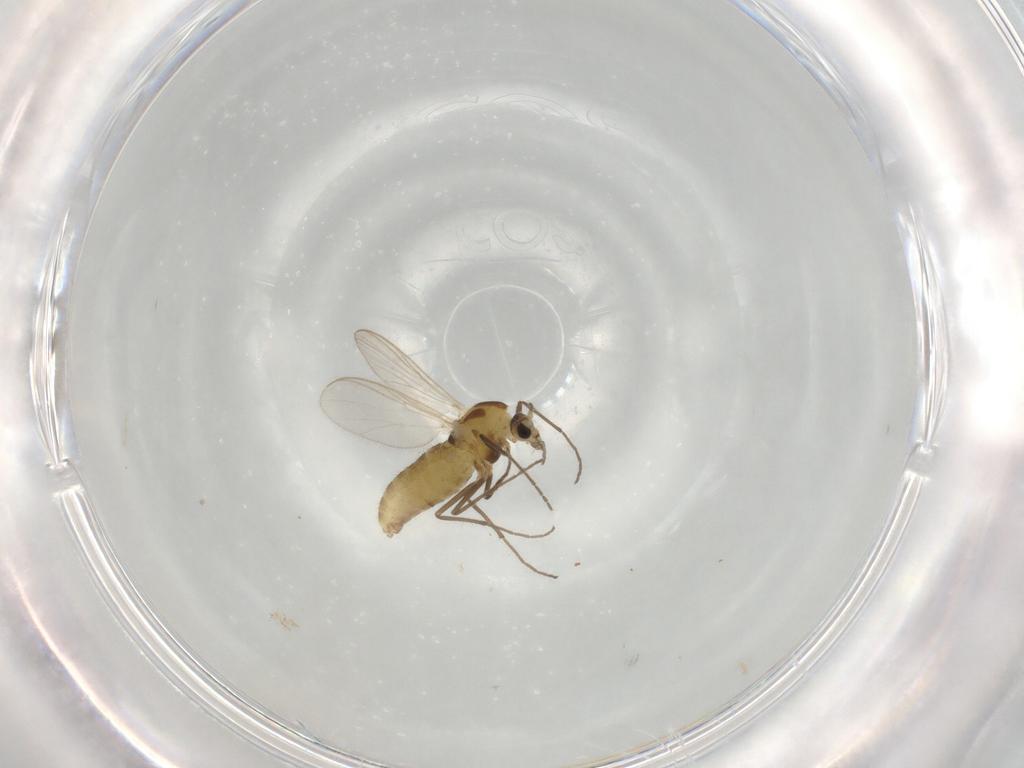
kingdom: Animalia
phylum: Arthropoda
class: Insecta
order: Diptera
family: Chironomidae
